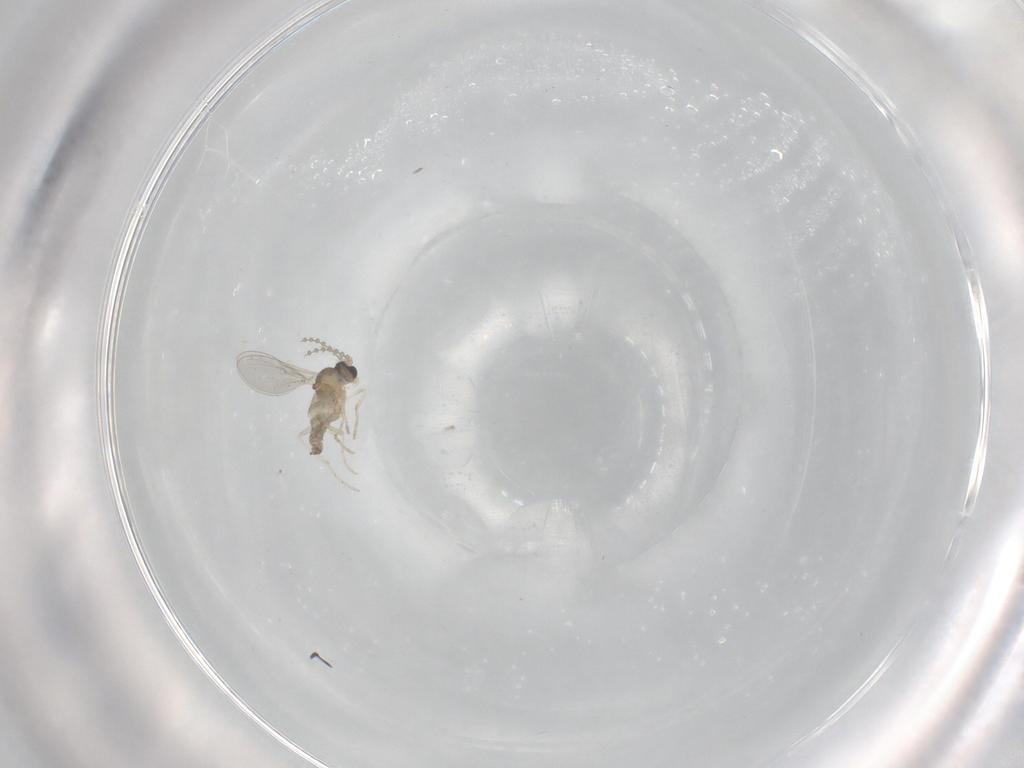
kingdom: Animalia
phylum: Arthropoda
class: Insecta
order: Diptera
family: Cecidomyiidae
